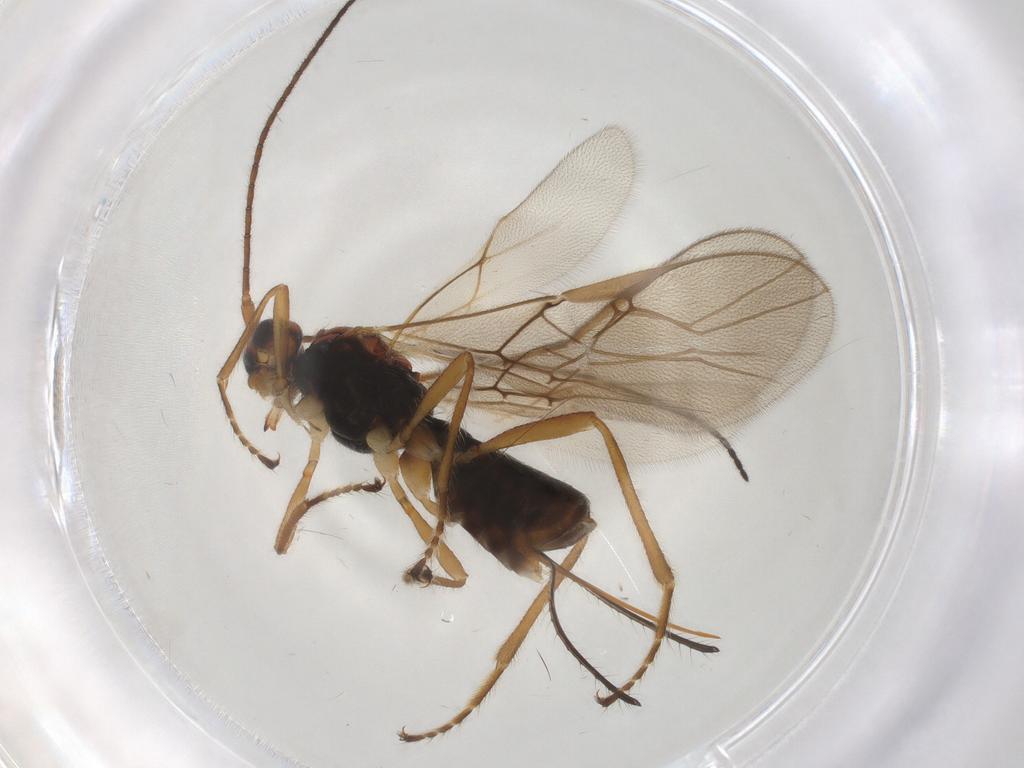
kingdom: Animalia
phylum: Arthropoda
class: Insecta
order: Hymenoptera
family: Braconidae
